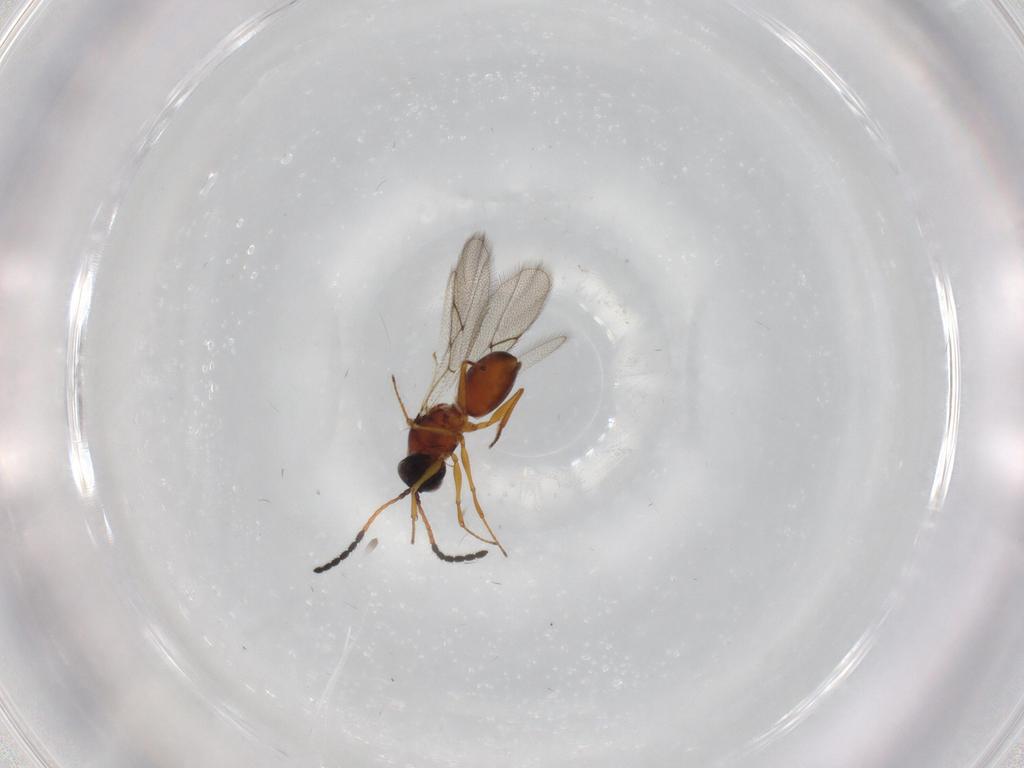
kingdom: Animalia
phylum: Arthropoda
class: Insecta
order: Hymenoptera
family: Figitidae
